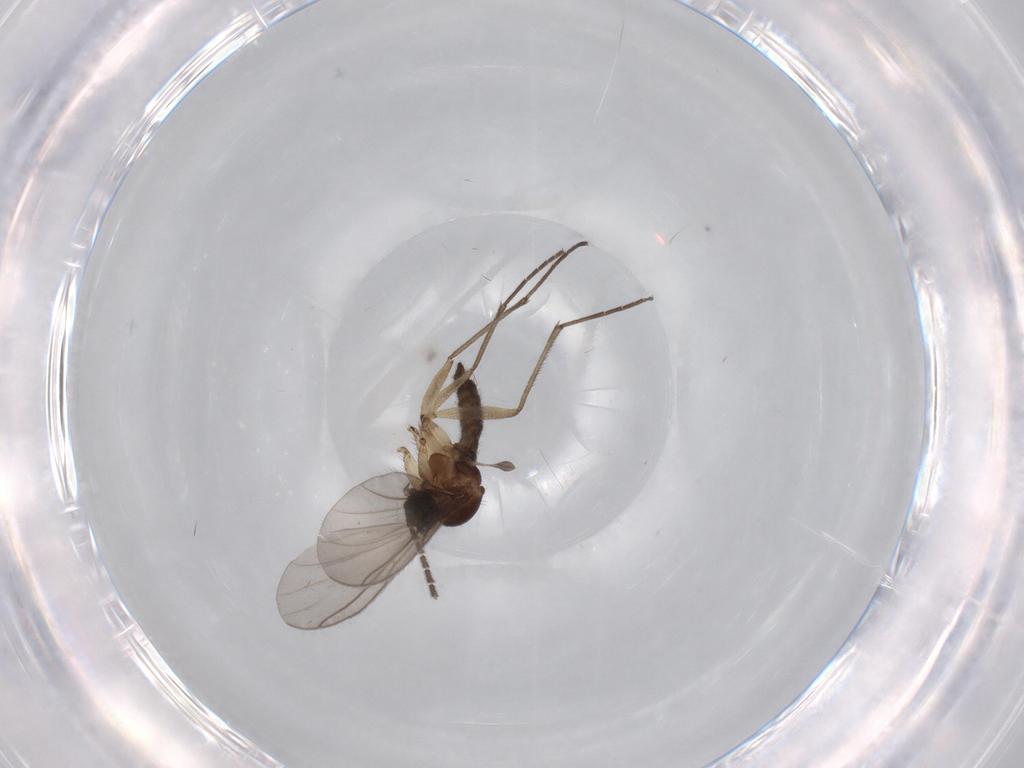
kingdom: Animalia
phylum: Arthropoda
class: Insecta
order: Diptera
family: Sciaridae
